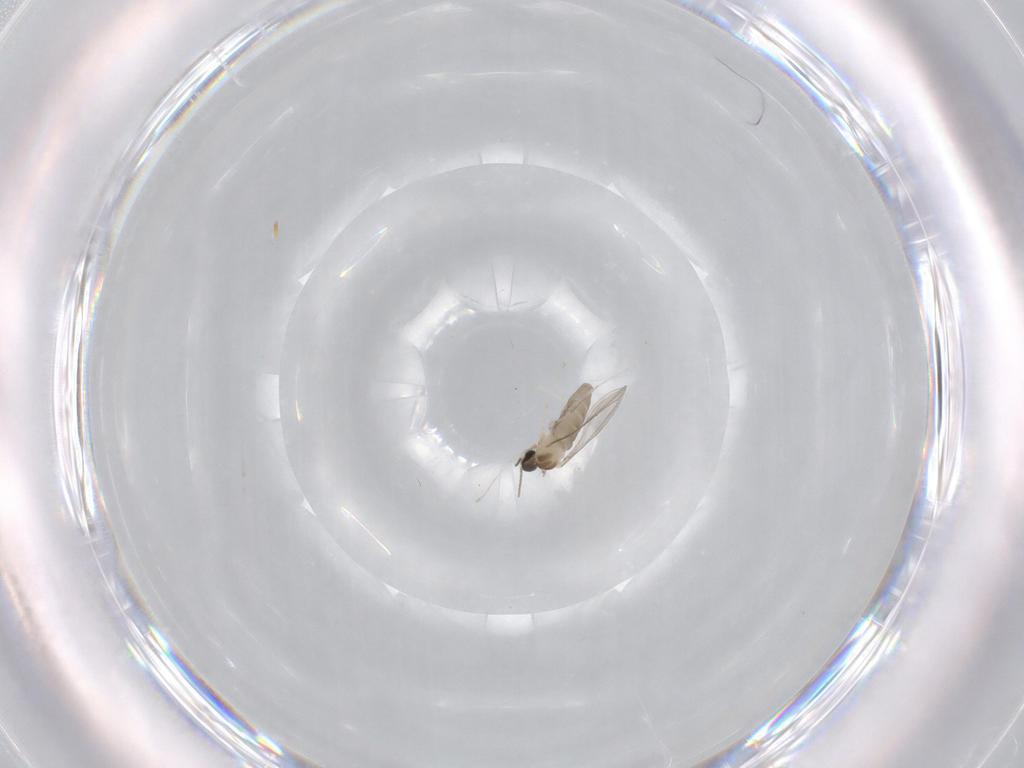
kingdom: Animalia
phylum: Arthropoda
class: Insecta
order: Diptera
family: Cecidomyiidae
